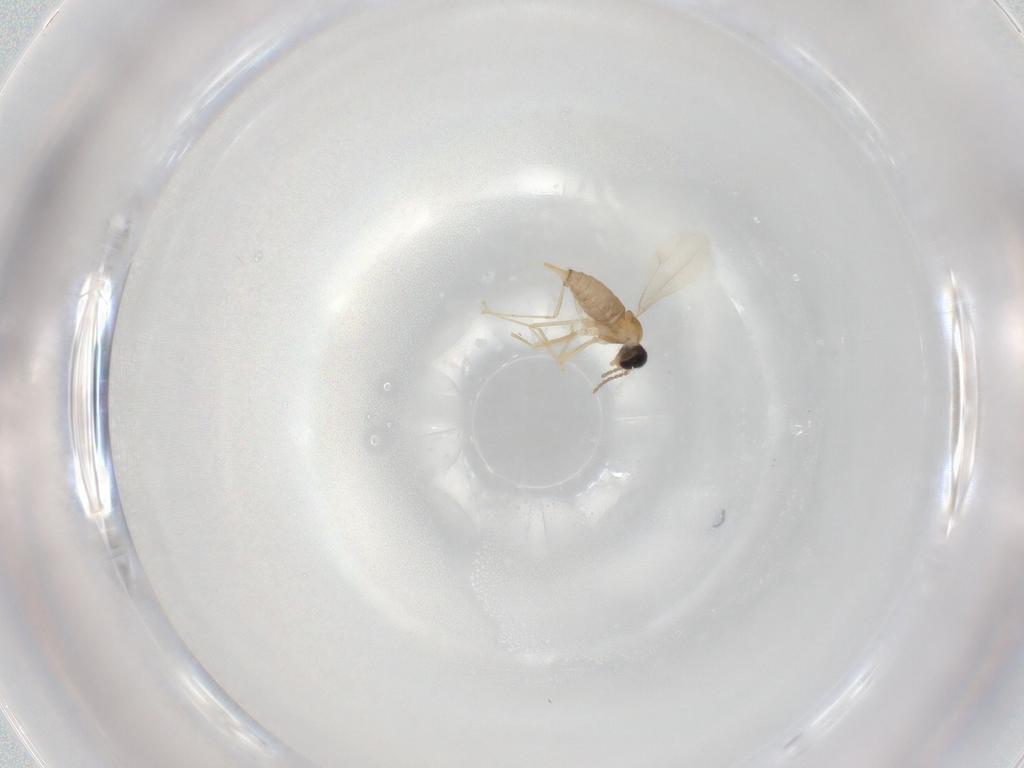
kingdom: Animalia
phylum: Arthropoda
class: Insecta
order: Diptera
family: Cecidomyiidae
